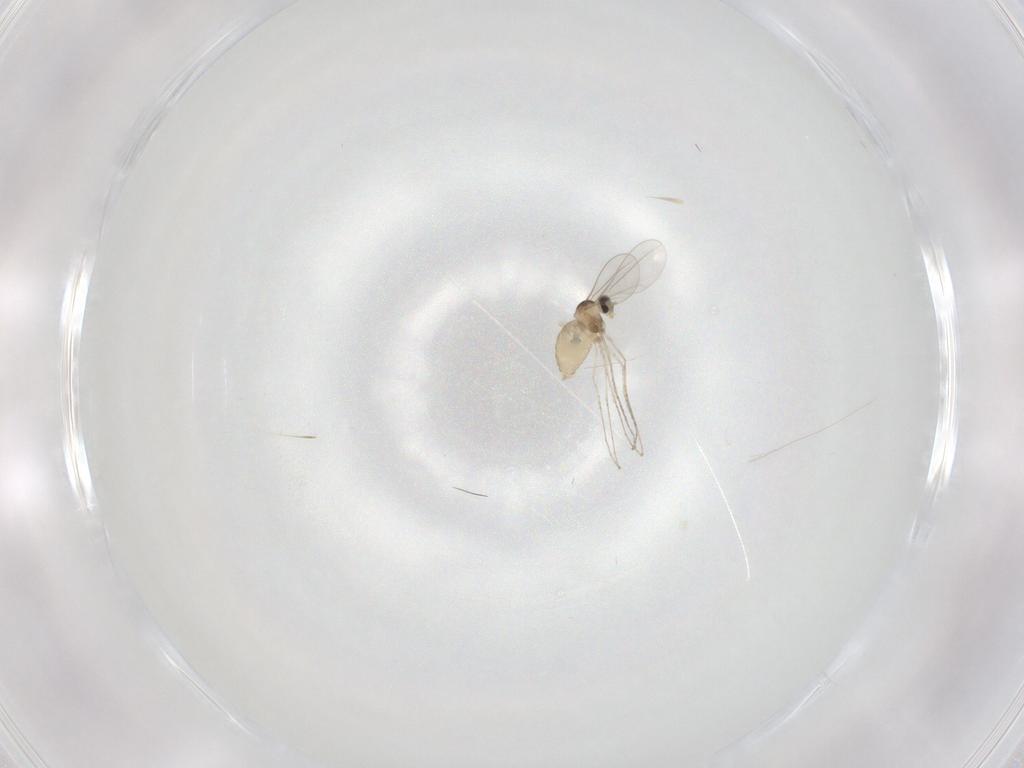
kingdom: Animalia
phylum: Arthropoda
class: Insecta
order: Diptera
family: Cecidomyiidae
